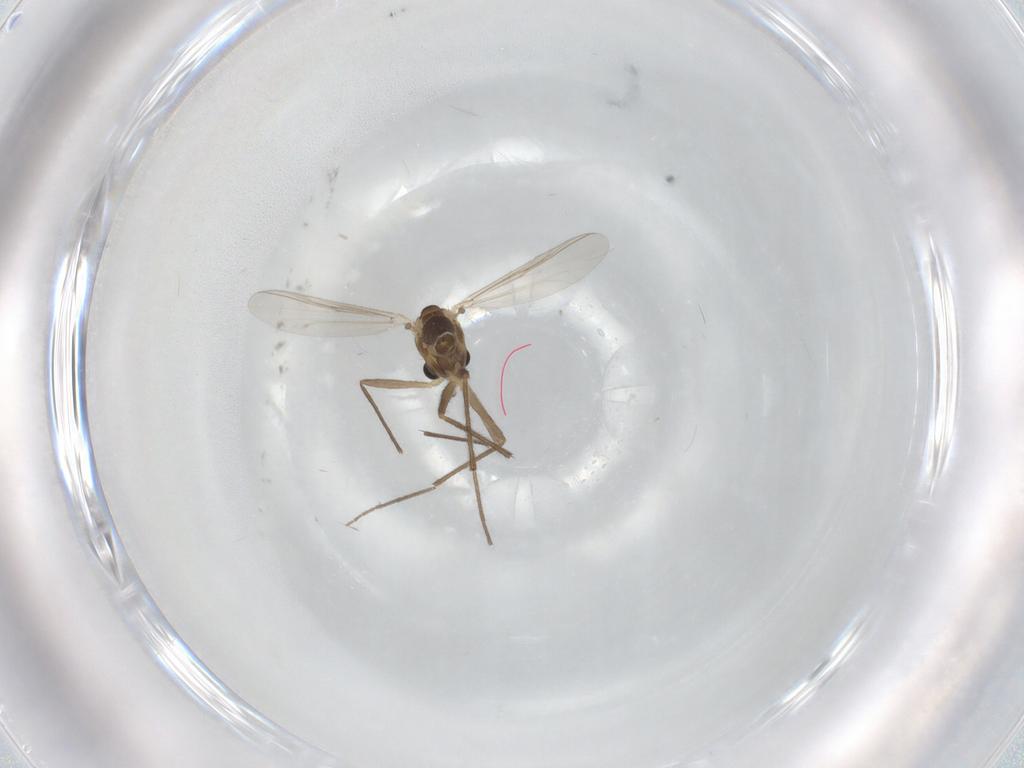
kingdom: Animalia
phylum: Arthropoda
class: Insecta
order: Diptera
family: Chironomidae
